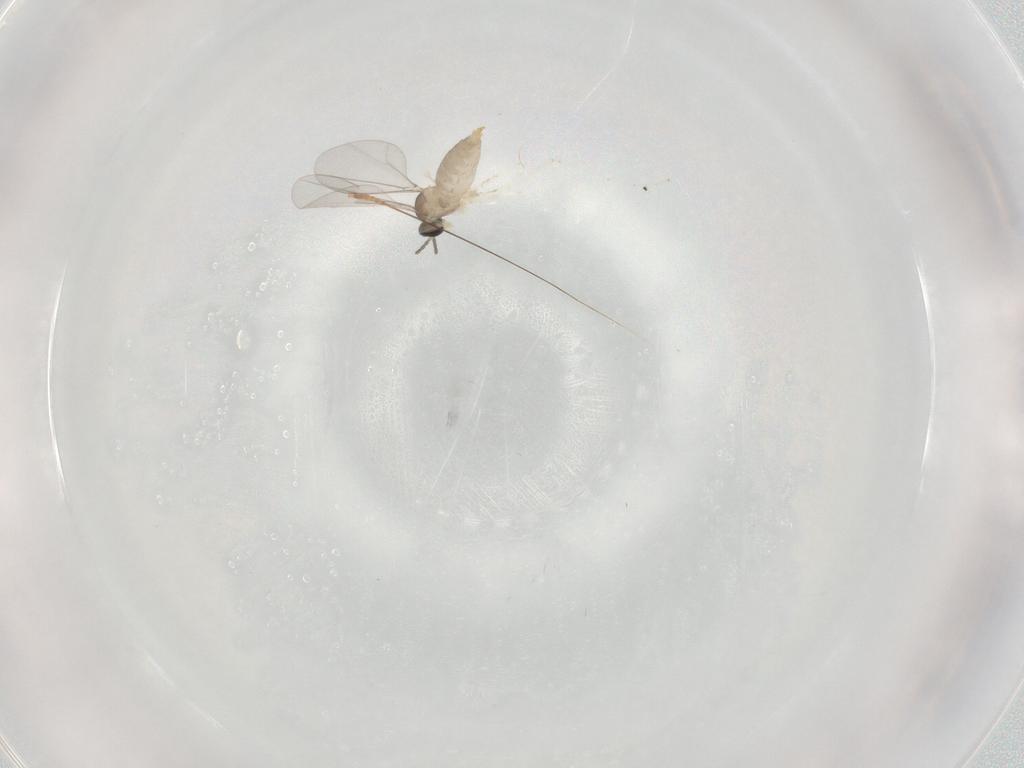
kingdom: Animalia
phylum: Arthropoda
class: Insecta
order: Diptera
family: Cecidomyiidae
